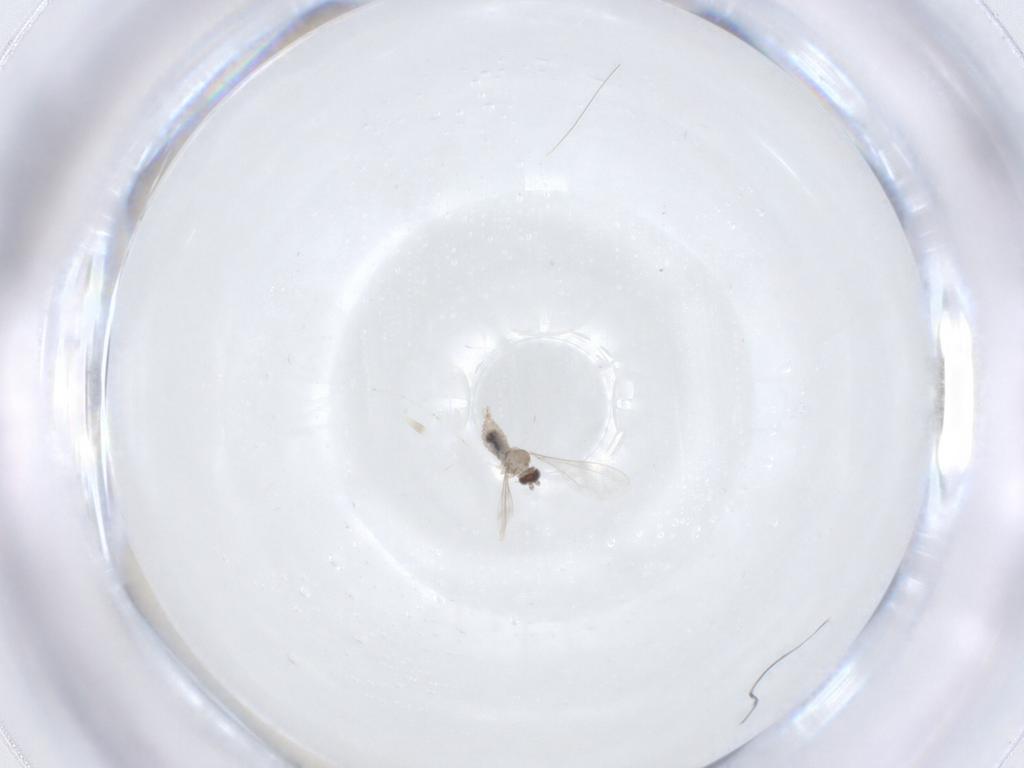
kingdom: Animalia
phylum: Arthropoda
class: Insecta
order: Diptera
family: Cecidomyiidae
